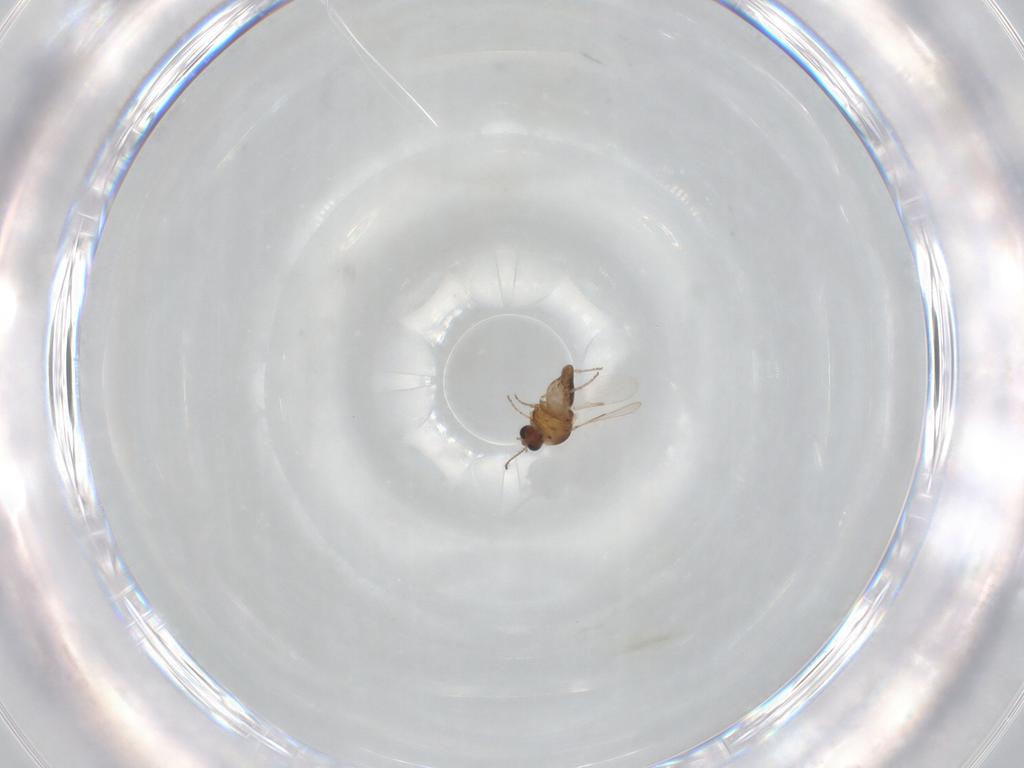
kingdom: Animalia
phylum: Arthropoda
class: Insecta
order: Diptera
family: Ceratopogonidae
